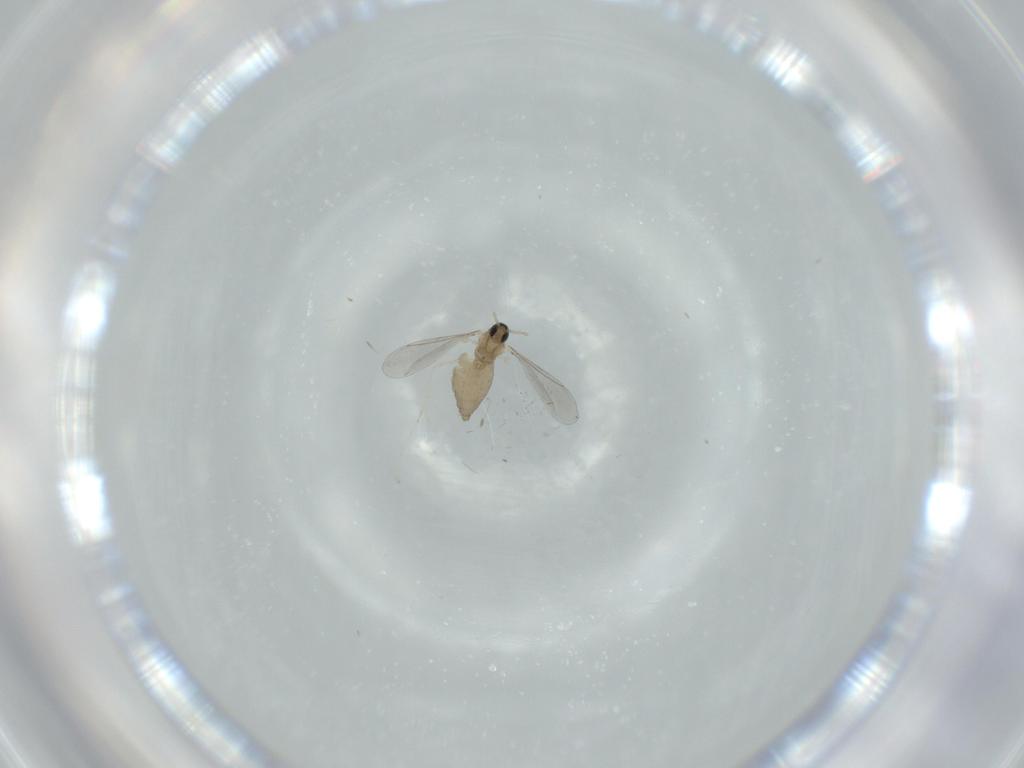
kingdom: Animalia
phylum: Arthropoda
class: Insecta
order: Diptera
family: Cecidomyiidae
